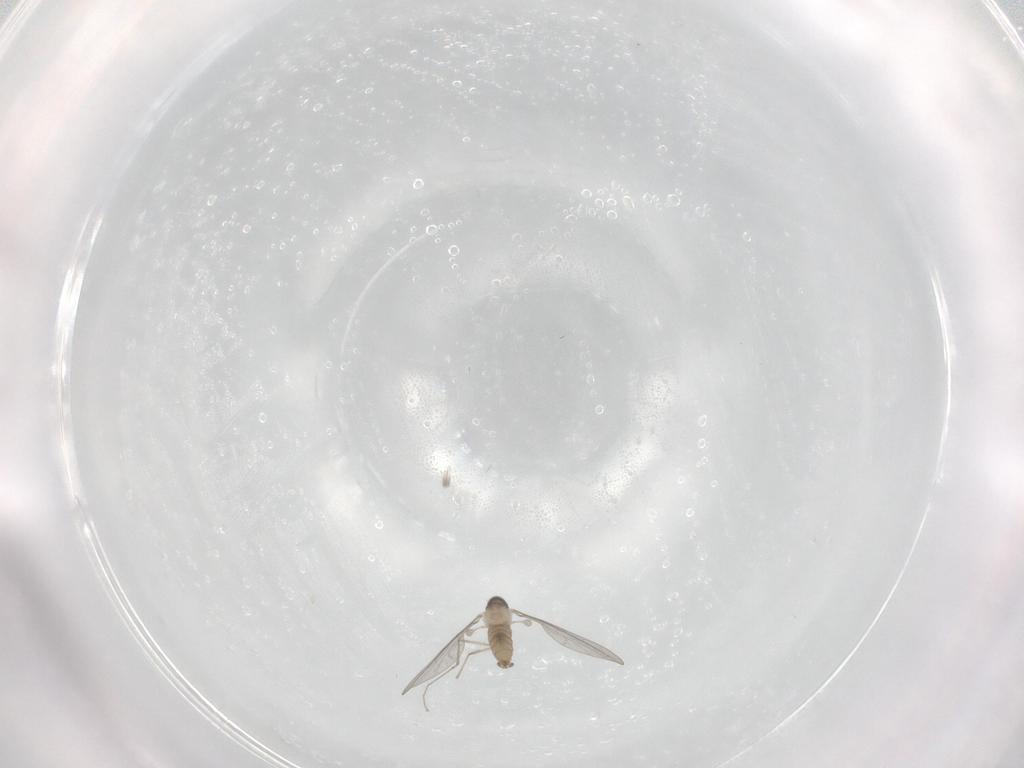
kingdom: Animalia
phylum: Arthropoda
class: Insecta
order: Diptera
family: Cecidomyiidae
